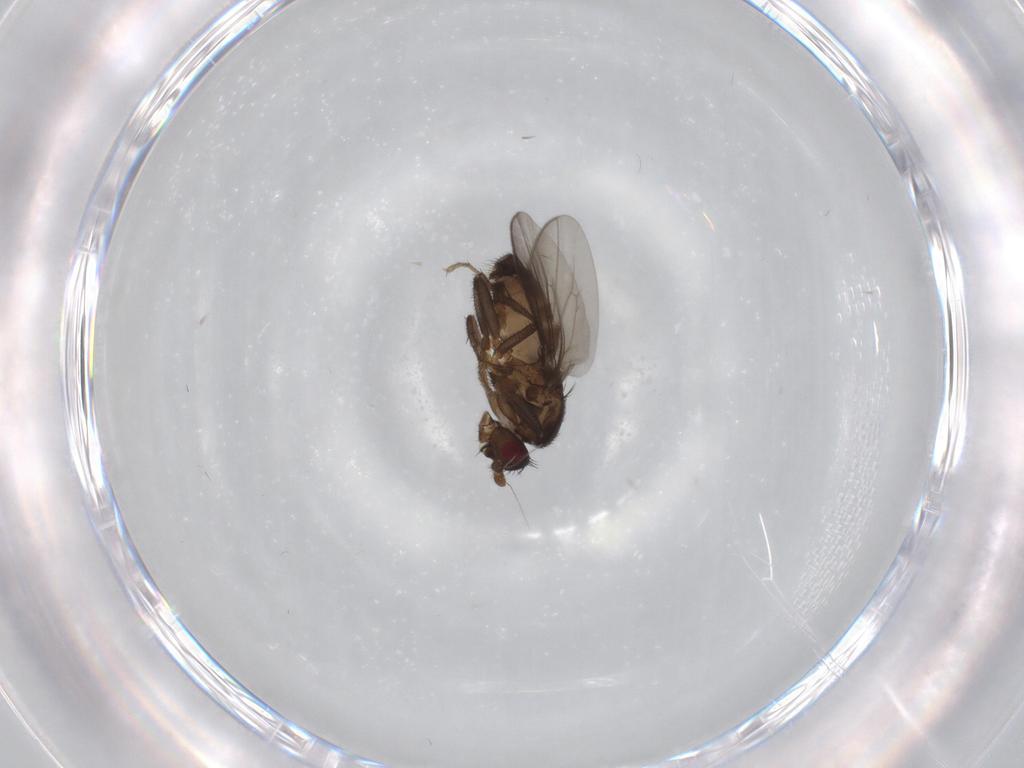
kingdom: Animalia
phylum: Arthropoda
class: Insecta
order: Diptera
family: Sphaeroceridae
